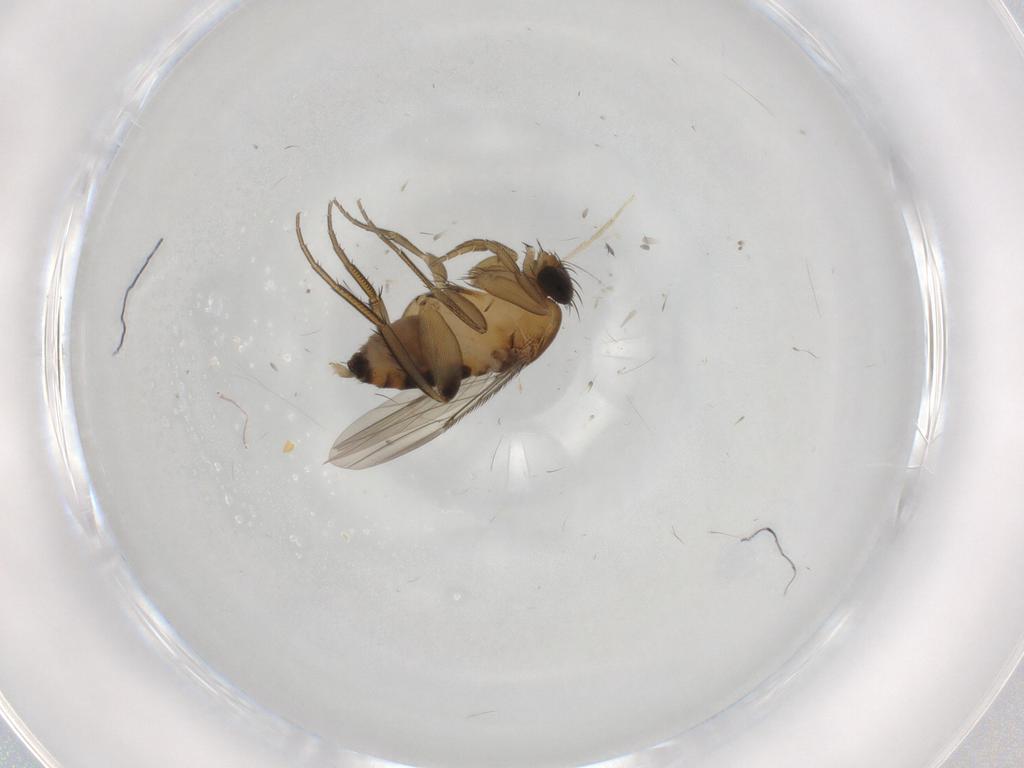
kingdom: Animalia
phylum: Arthropoda
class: Insecta
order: Diptera
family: Phoridae
